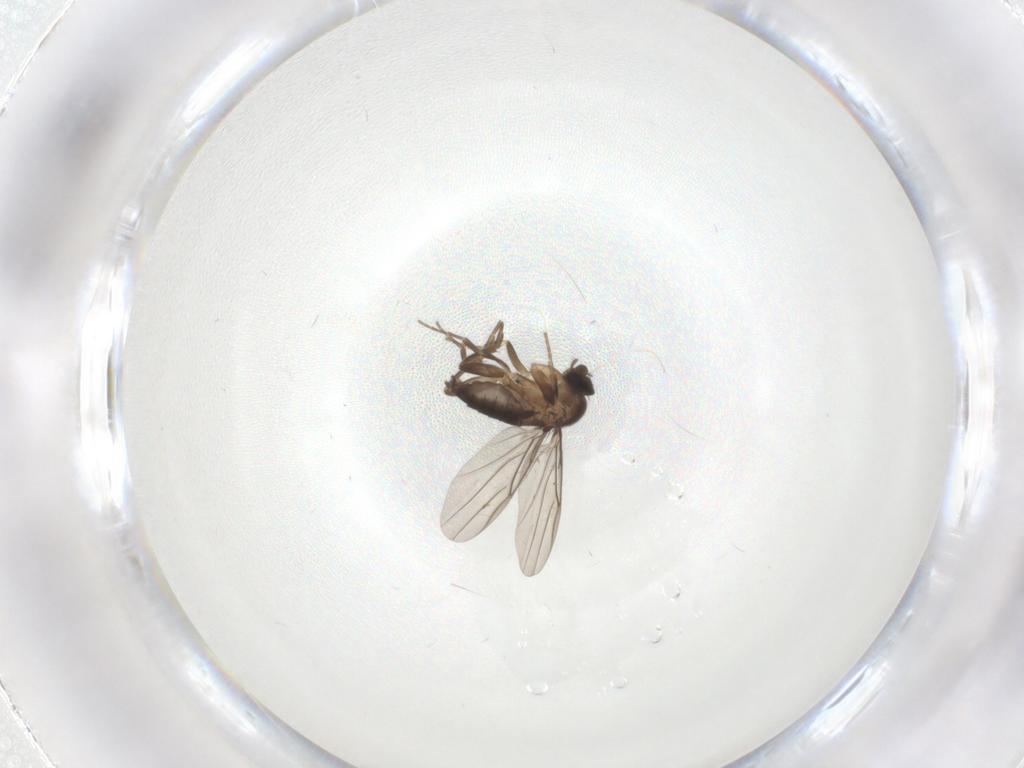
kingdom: Animalia
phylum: Arthropoda
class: Insecta
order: Diptera
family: Phoridae
